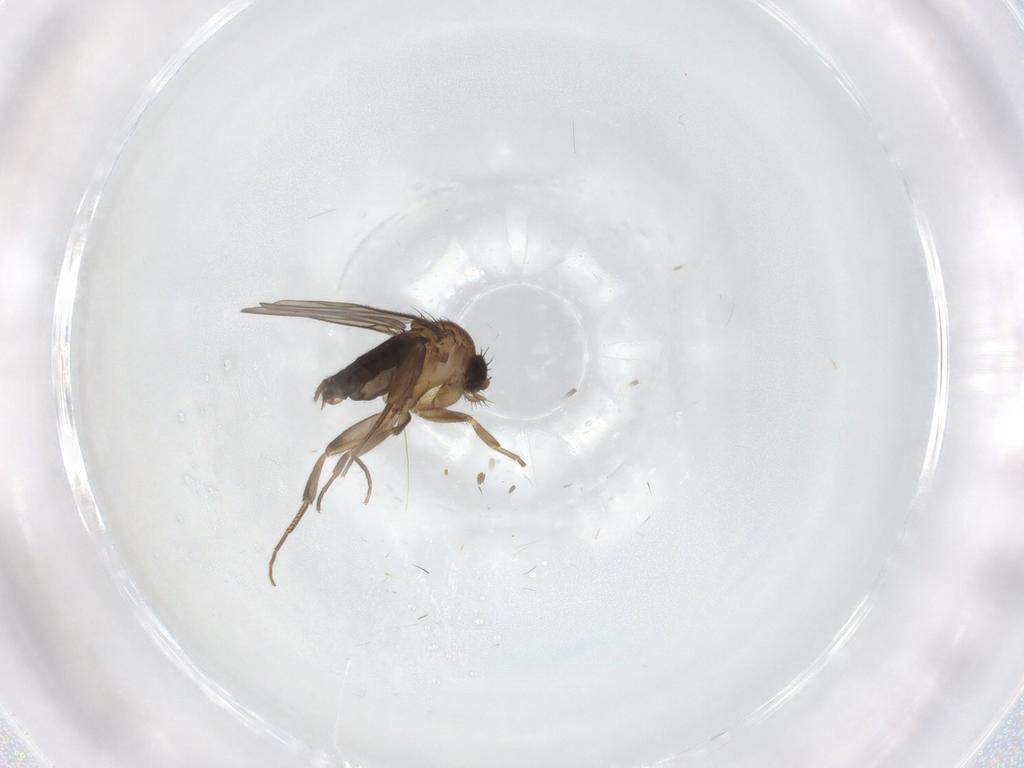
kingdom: Animalia
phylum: Arthropoda
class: Insecta
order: Diptera
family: Phoridae
